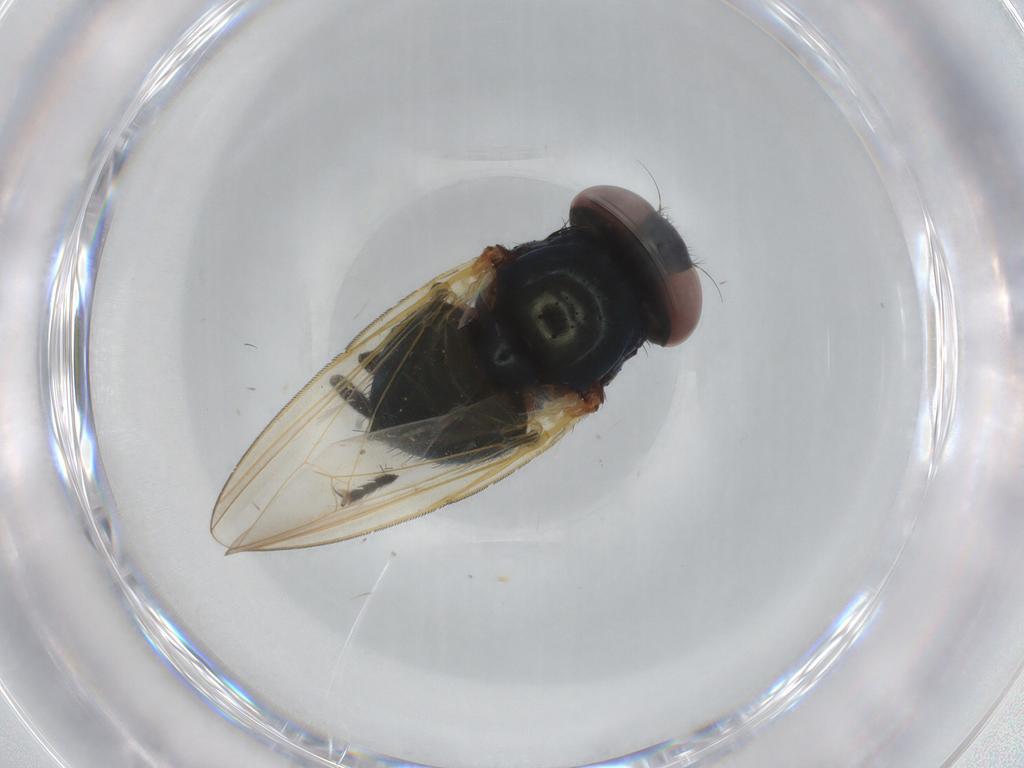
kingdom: Animalia
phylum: Arthropoda
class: Insecta
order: Diptera
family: Lonchaeidae
